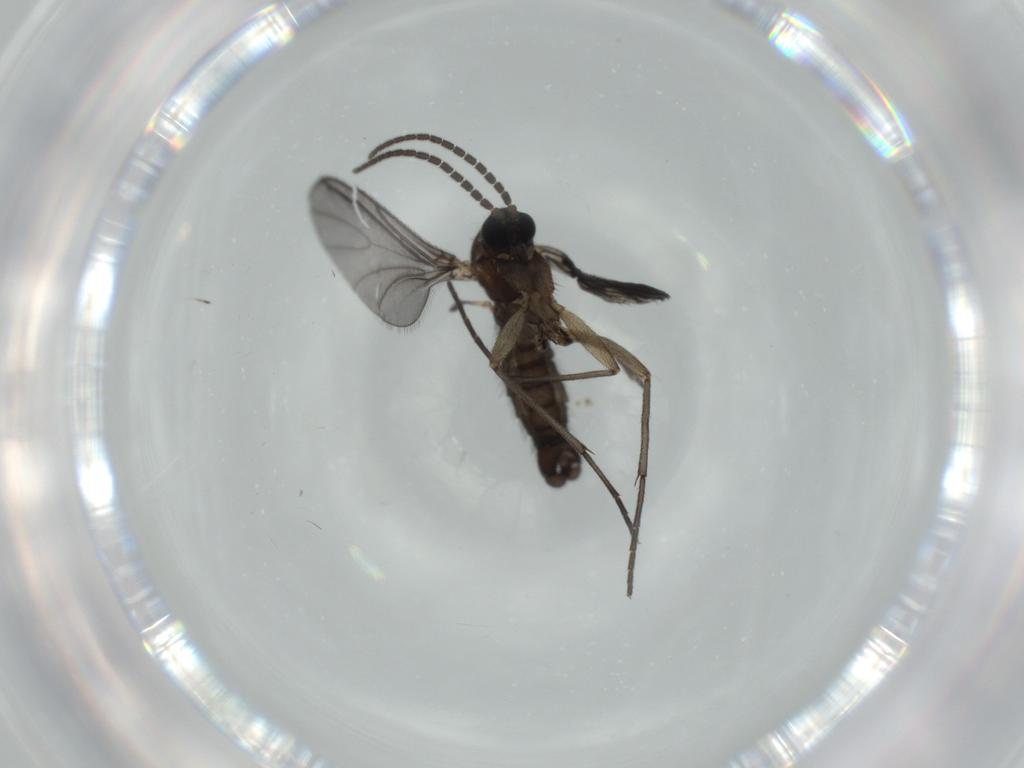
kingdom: Animalia
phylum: Arthropoda
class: Insecta
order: Diptera
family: Sciaridae
